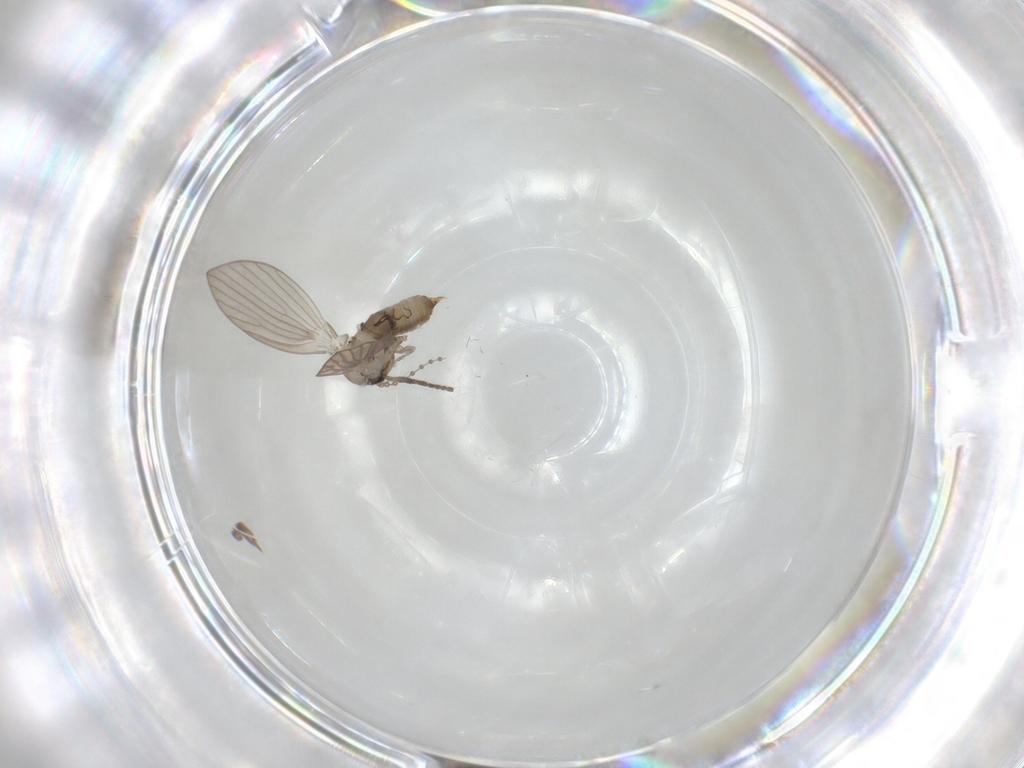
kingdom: Animalia
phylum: Arthropoda
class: Insecta
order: Diptera
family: Psychodidae
